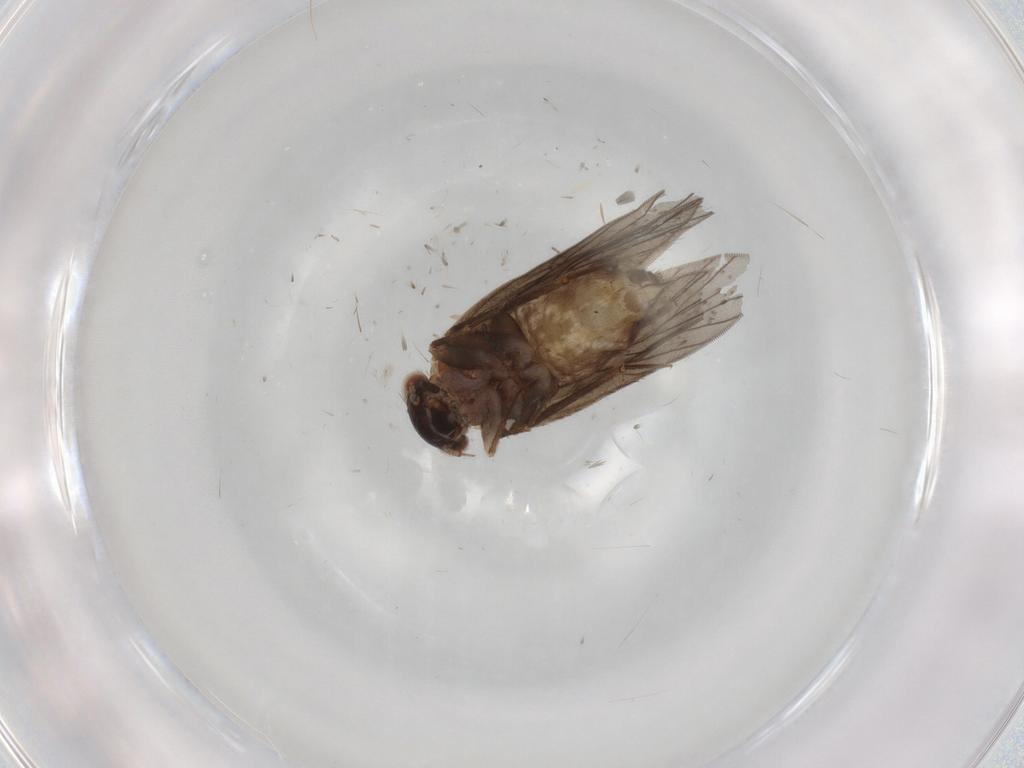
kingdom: Animalia
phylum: Arthropoda
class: Insecta
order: Psocodea
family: Lepidopsocidae
